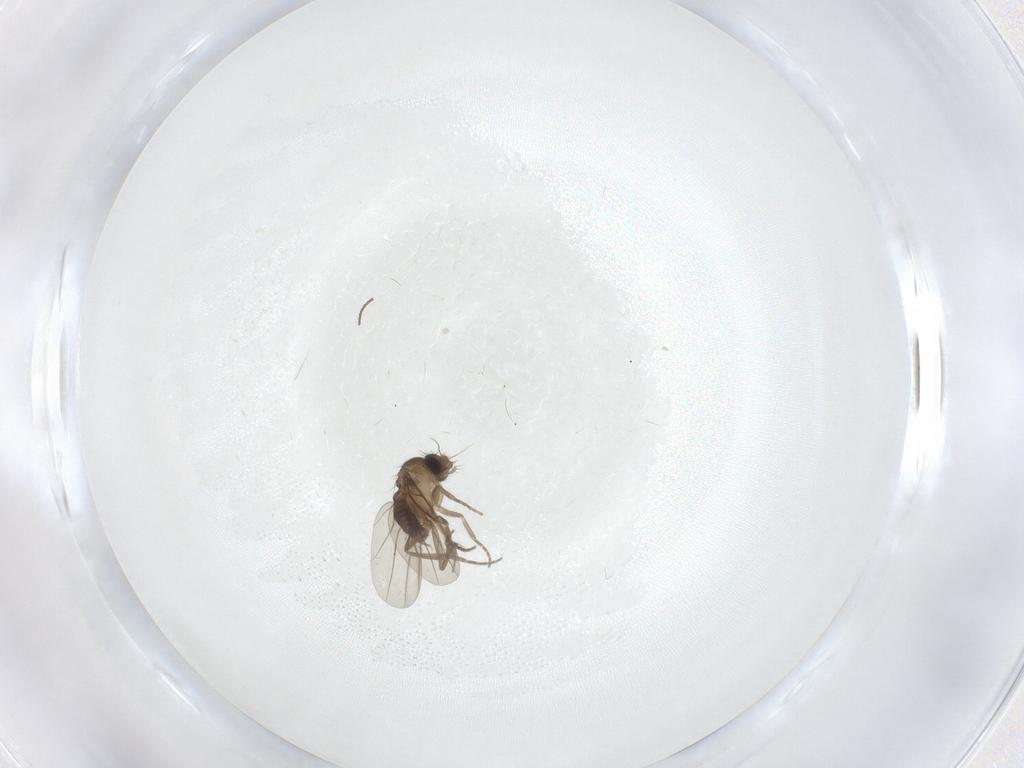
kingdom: Animalia
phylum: Arthropoda
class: Insecta
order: Diptera
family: Cecidomyiidae
